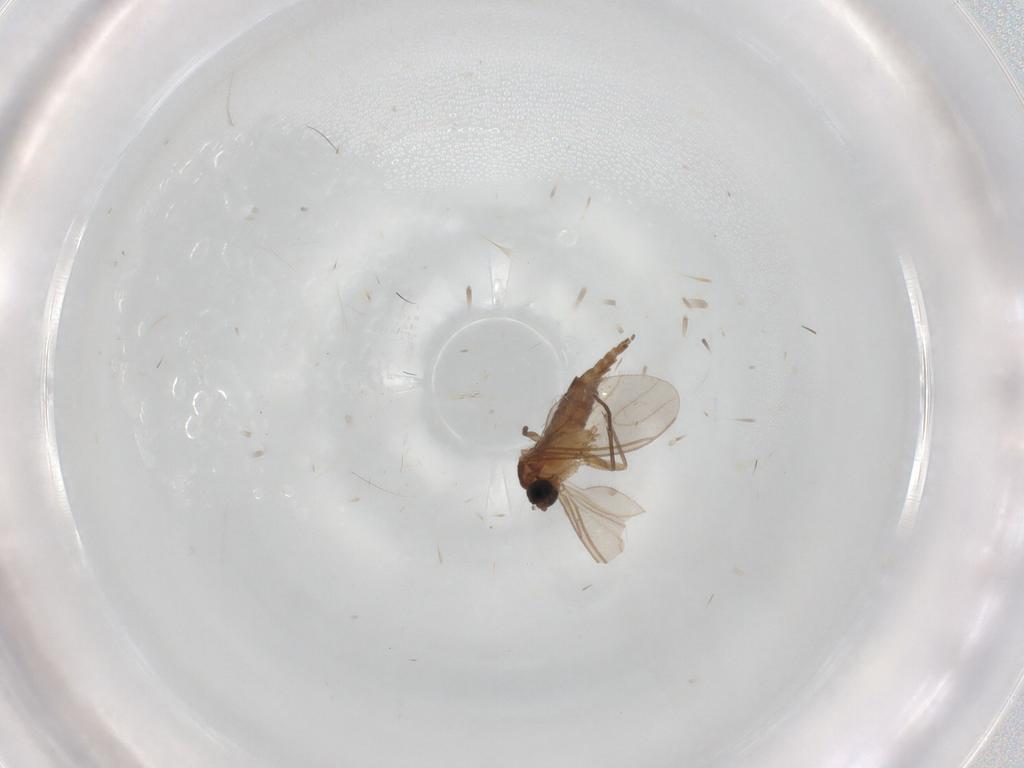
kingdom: Animalia
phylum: Arthropoda
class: Insecta
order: Diptera
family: Sciaridae
